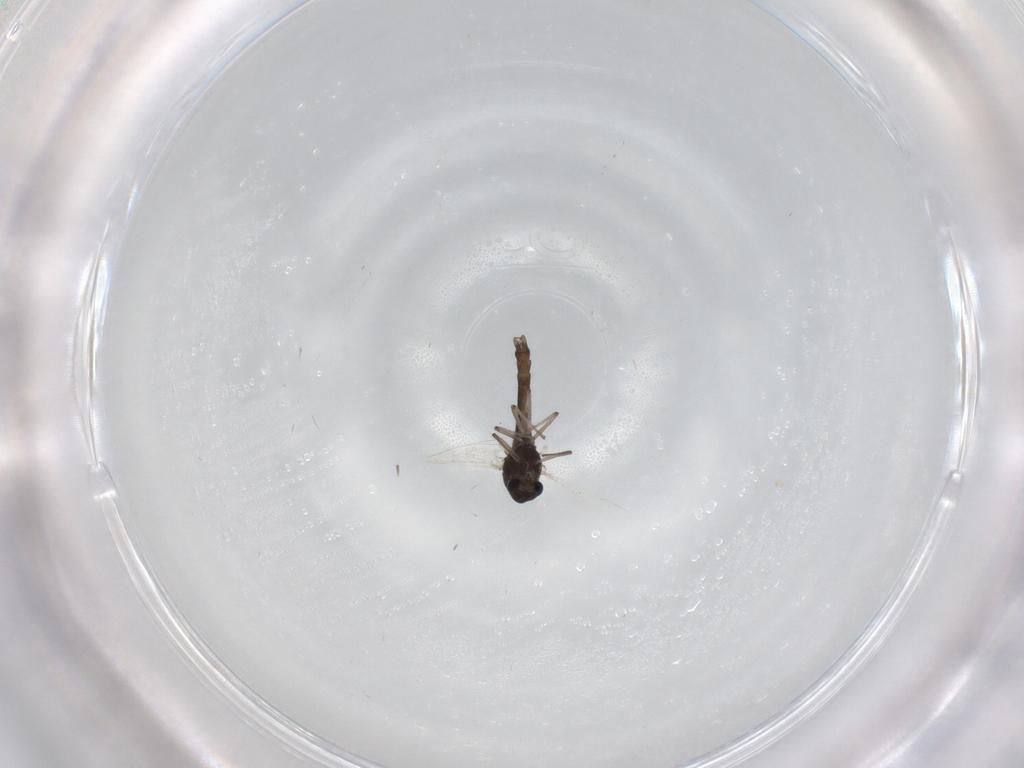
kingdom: Animalia
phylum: Arthropoda
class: Insecta
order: Diptera
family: Chironomidae
